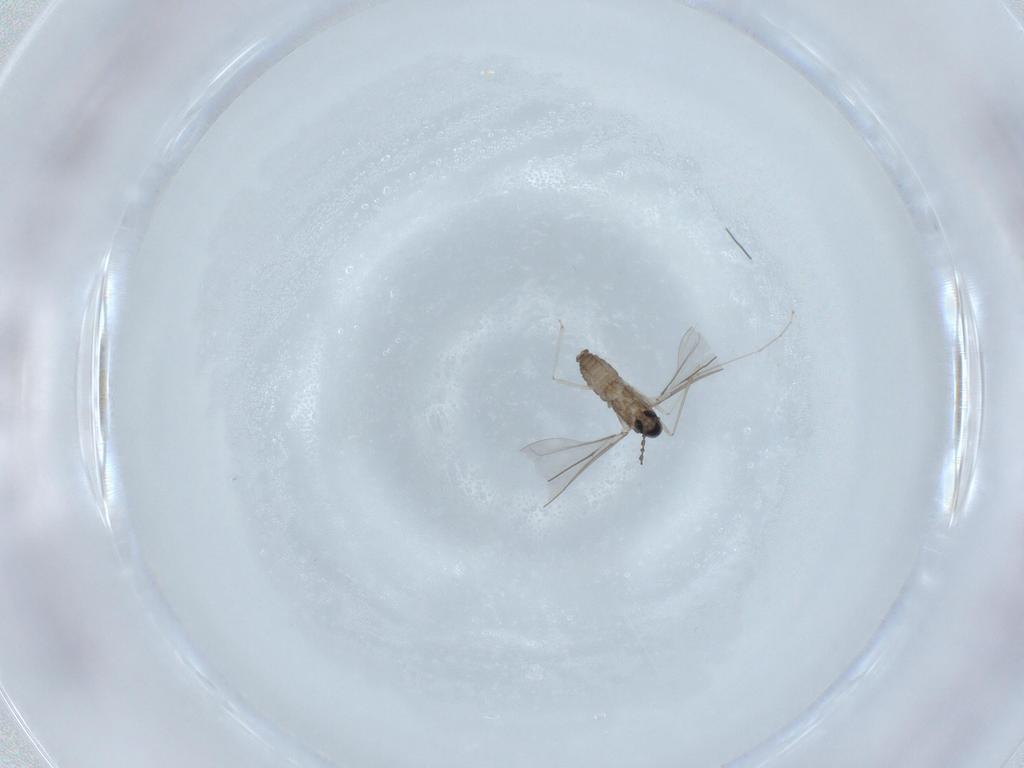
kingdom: Animalia
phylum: Arthropoda
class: Insecta
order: Diptera
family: Cecidomyiidae
